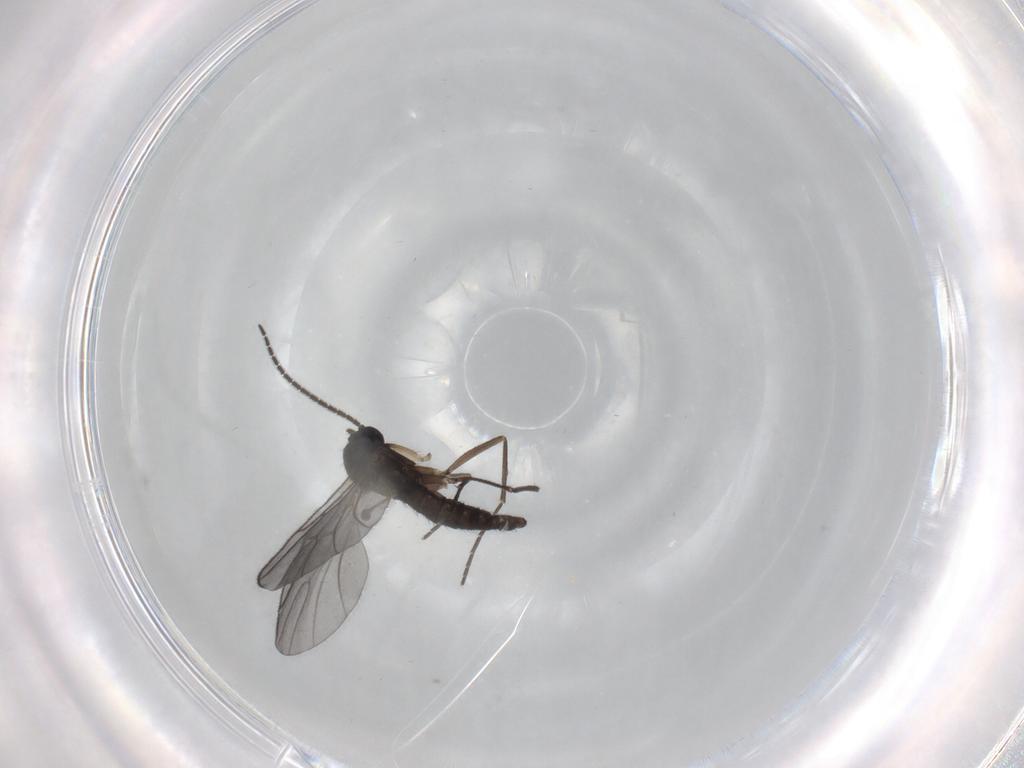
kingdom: Animalia
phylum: Arthropoda
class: Insecta
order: Diptera
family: Sciaridae
